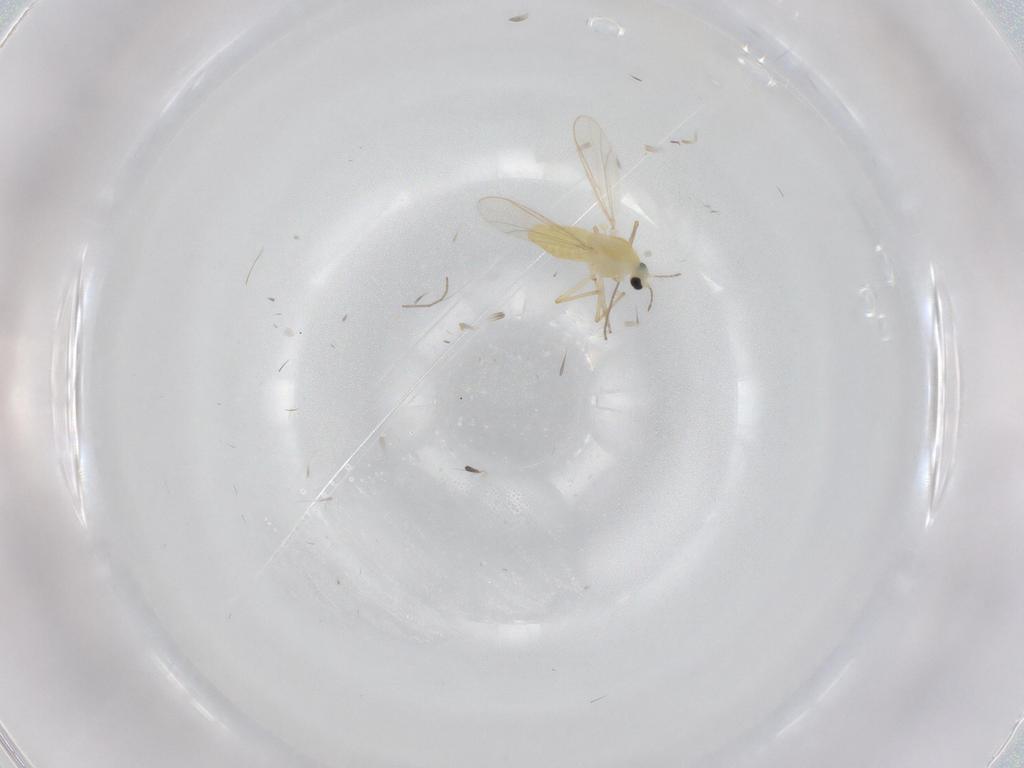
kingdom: Animalia
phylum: Arthropoda
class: Insecta
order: Diptera
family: Chironomidae
